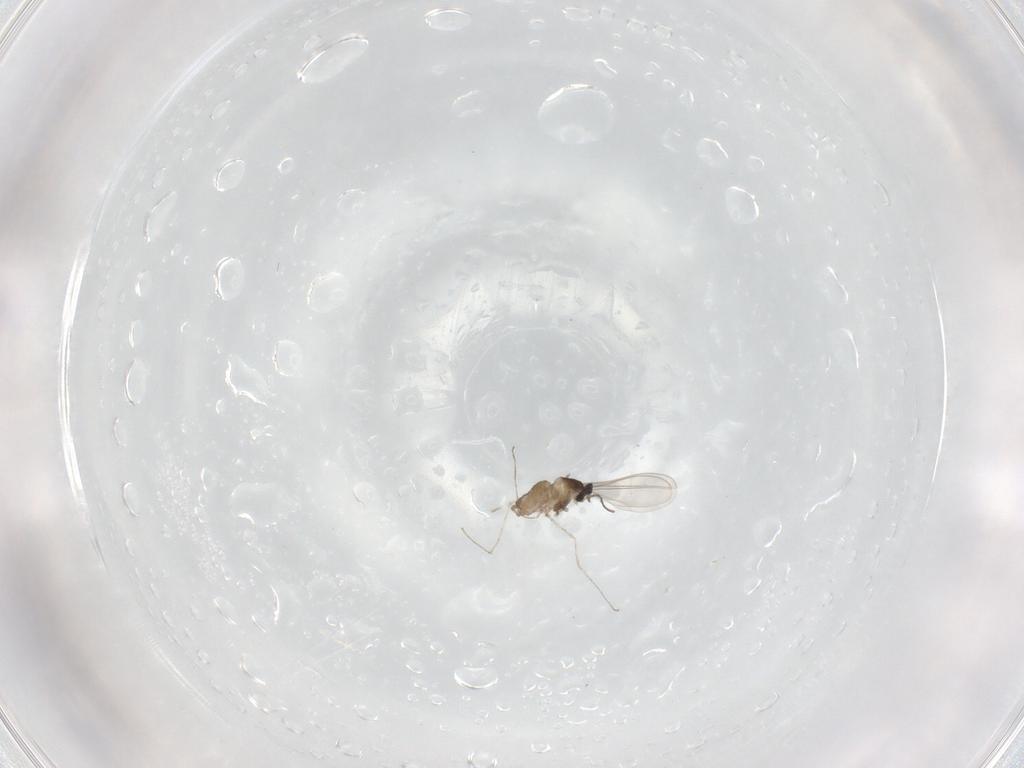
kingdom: Animalia
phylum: Arthropoda
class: Insecta
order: Diptera
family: Cecidomyiidae
